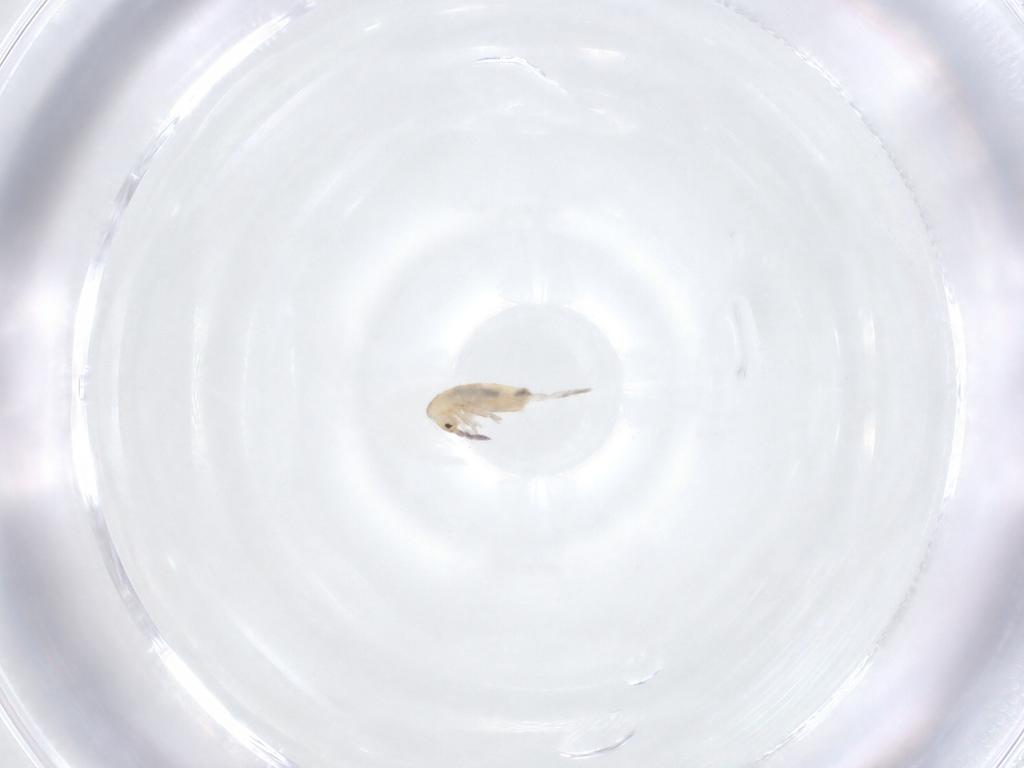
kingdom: Animalia
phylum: Arthropoda
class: Collembola
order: Entomobryomorpha
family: Entomobryidae
